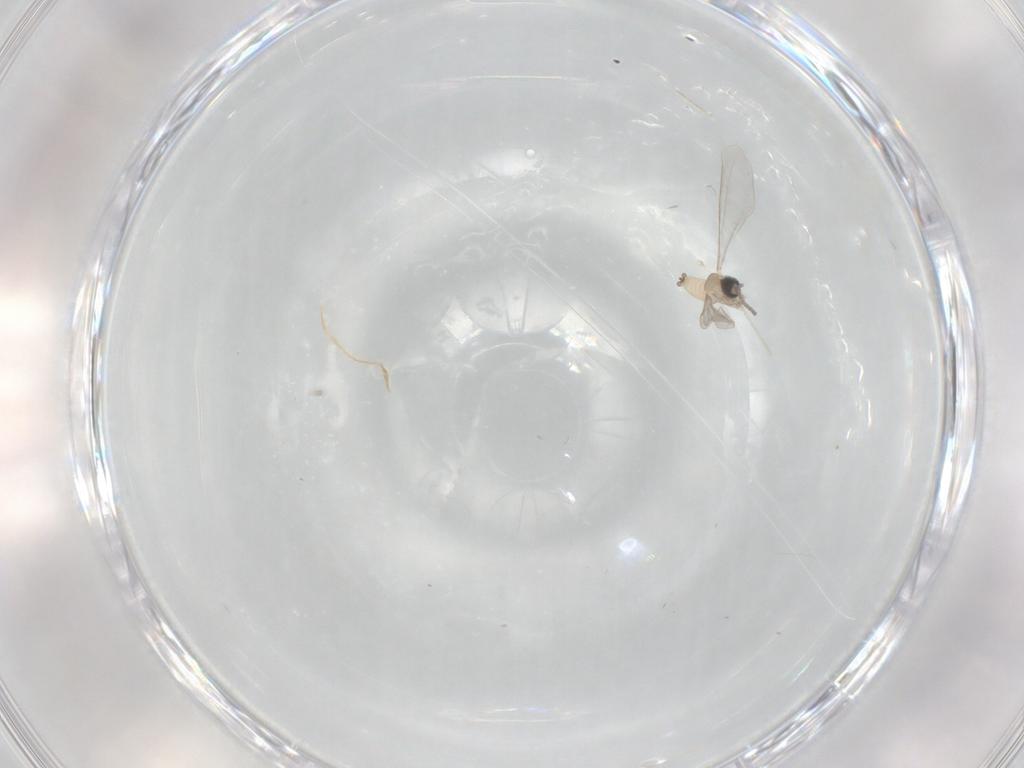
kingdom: Animalia
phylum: Arthropoda
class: Insecta
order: Diptera
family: Cecidomyiidae
